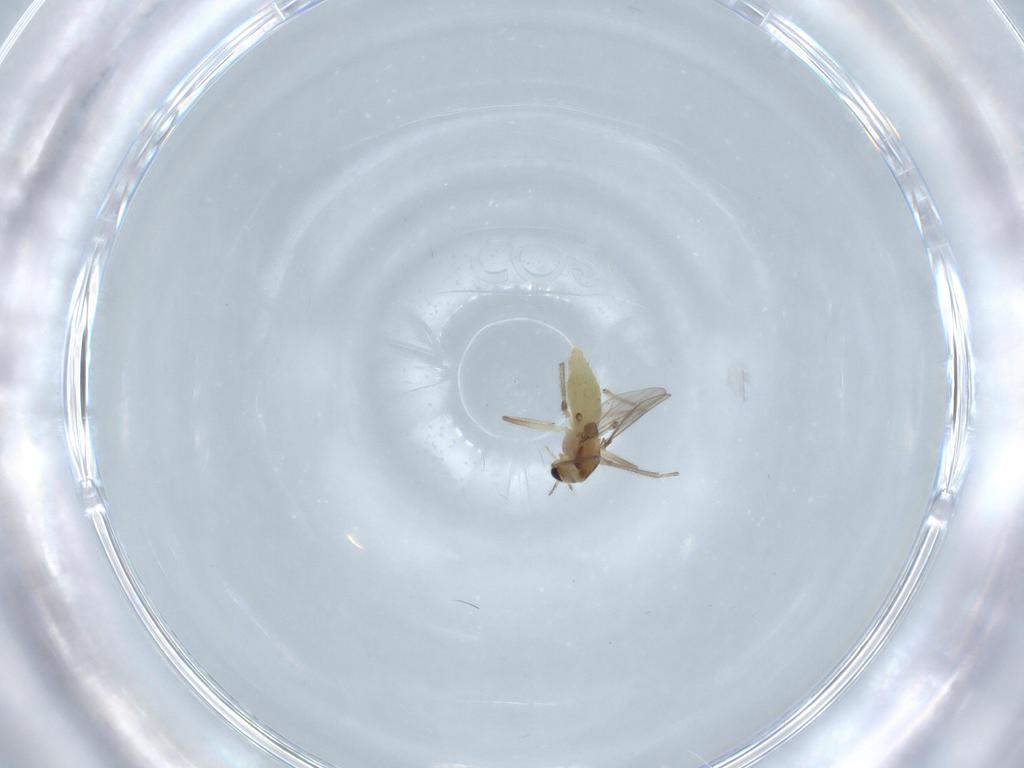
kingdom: Animalia
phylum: Arthropoda
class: Insecta
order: Diptera
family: Chironomidae
